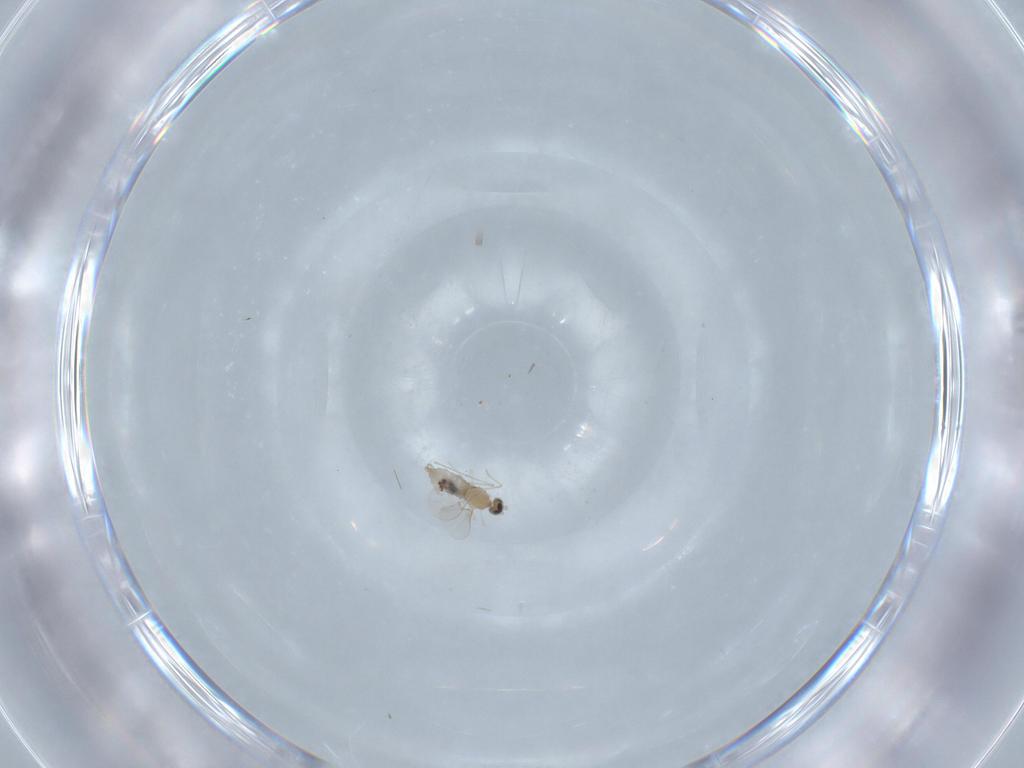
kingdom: Animalia
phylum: Arthropoda
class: Insecta
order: Diptera
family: Cecidomyiidae
